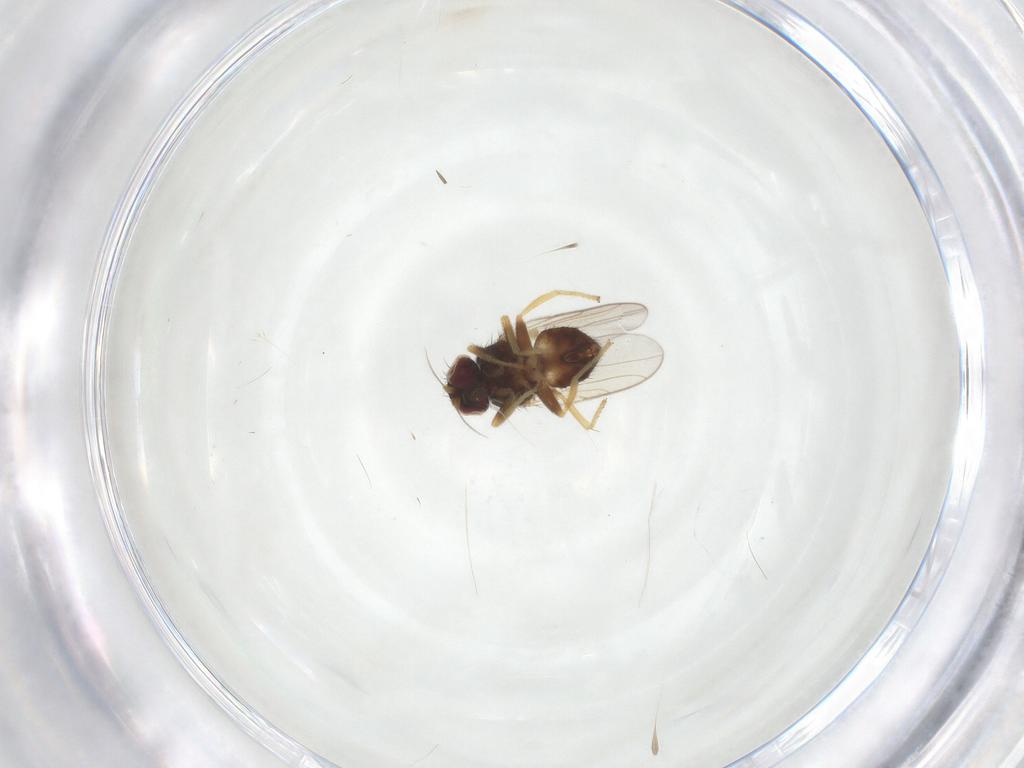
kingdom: Animalia
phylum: Arthropoda
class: Insecta
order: Diptera
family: Chloropidae
